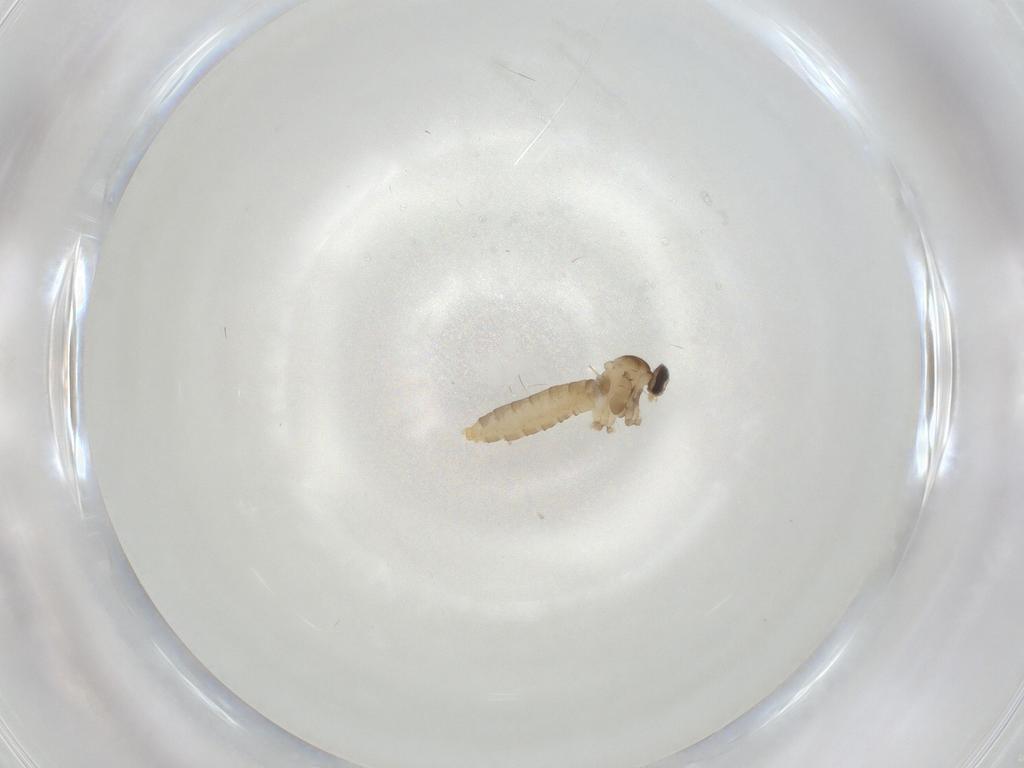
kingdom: Animalia
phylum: Arthropoda
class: Insecta
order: Diptera
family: Cecidomyiidae
